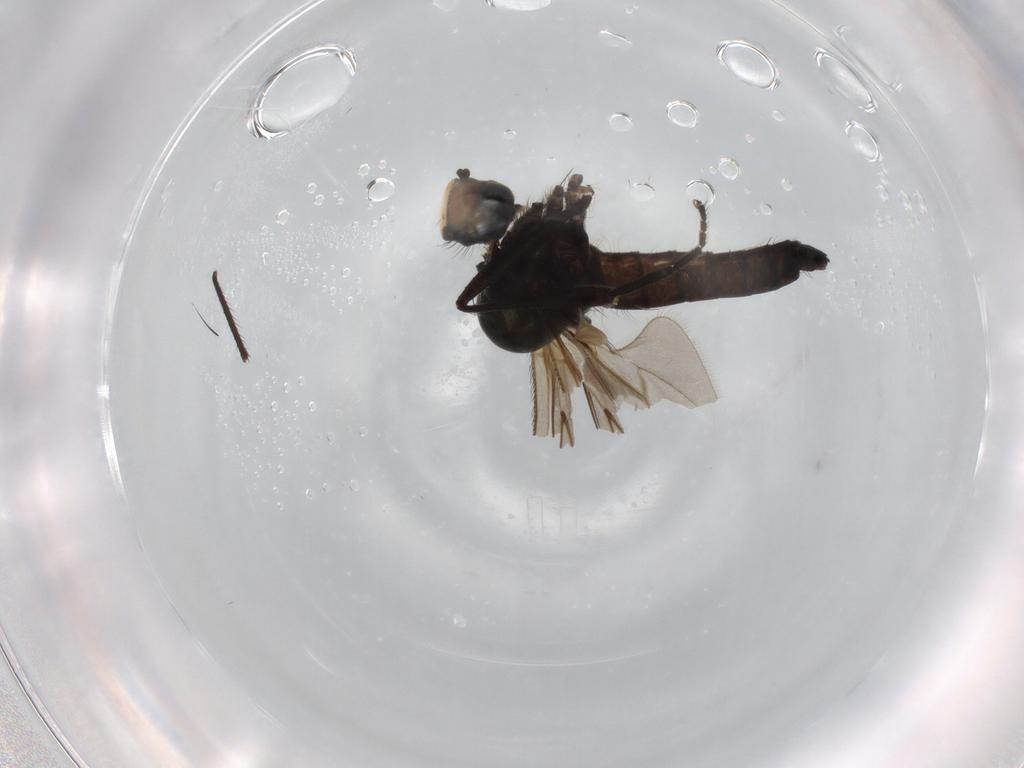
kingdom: Animalia
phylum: Arthropoda
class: Insecta
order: Diptera
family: Hybotidae
